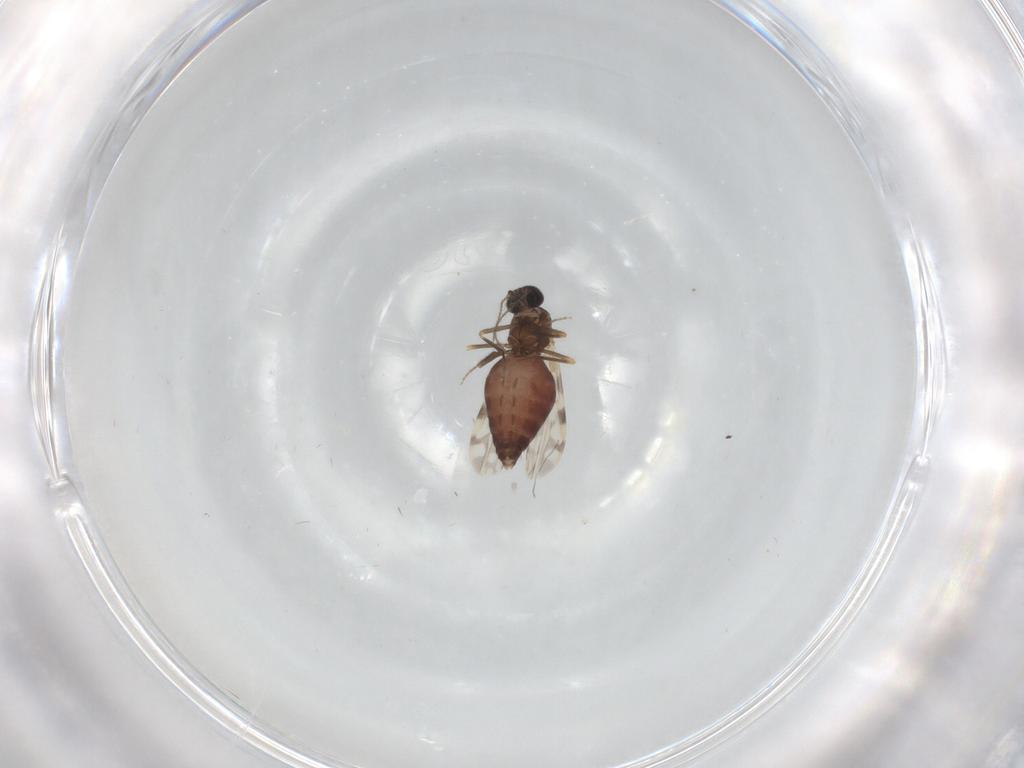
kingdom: Animalia
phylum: Arthropoda
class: Insecta
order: Diptera
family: Ceratopogonidae
